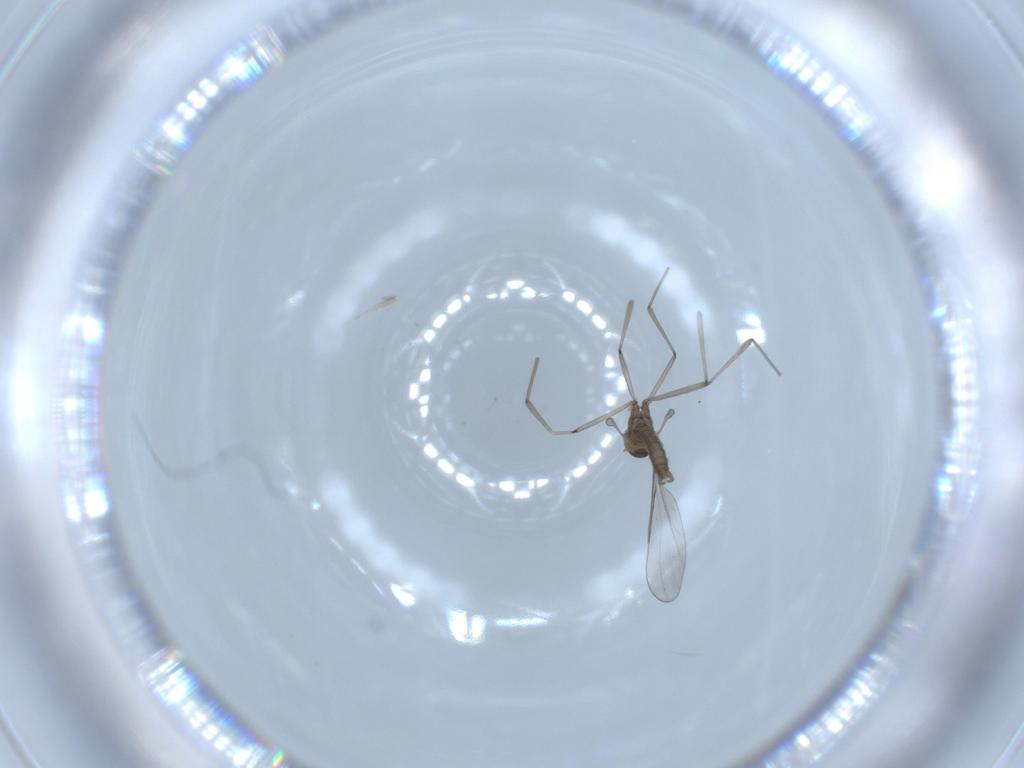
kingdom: Animalia
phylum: Arthropoda
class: Insecta
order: Diptera
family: Cecidomyiidae
